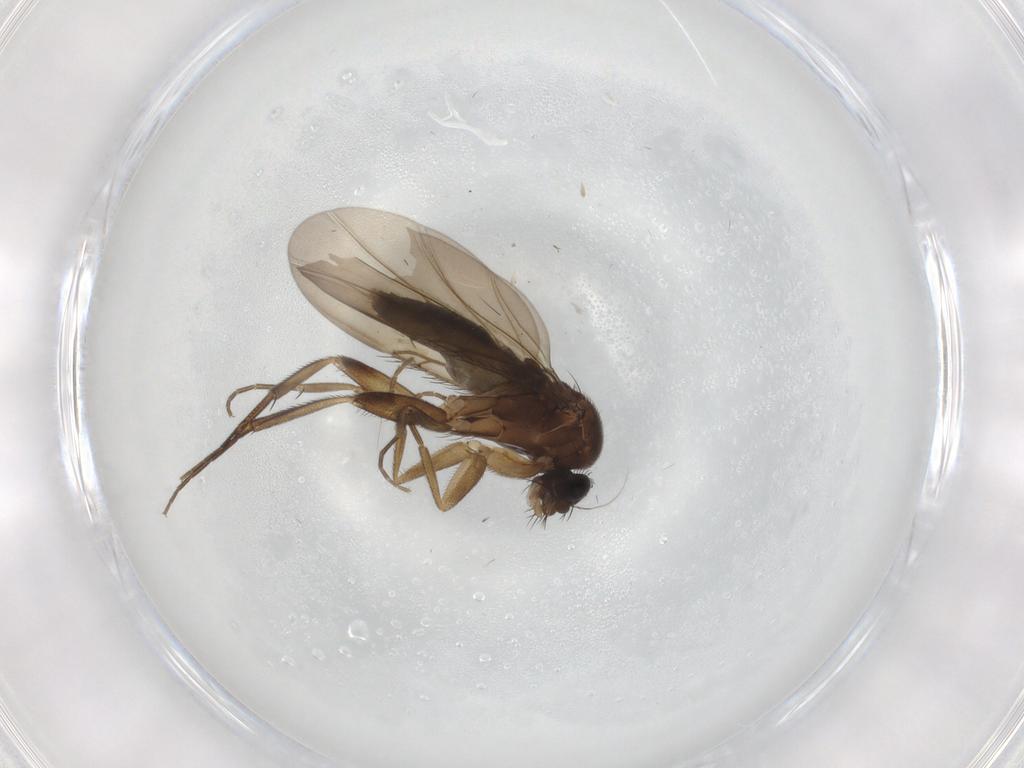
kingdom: Animalia
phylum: Arthropoda
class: Insecta
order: Diptera
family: Phoridae
